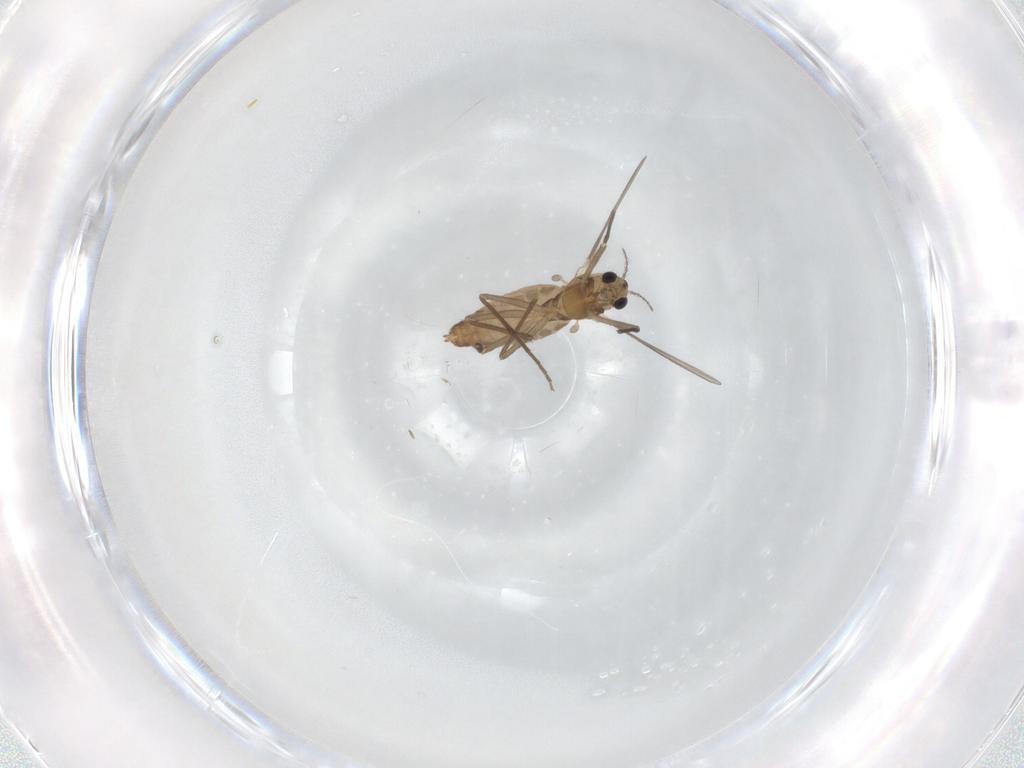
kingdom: Animalia
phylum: Arthropoda
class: Insecta
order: Diptera
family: Chironomidae
